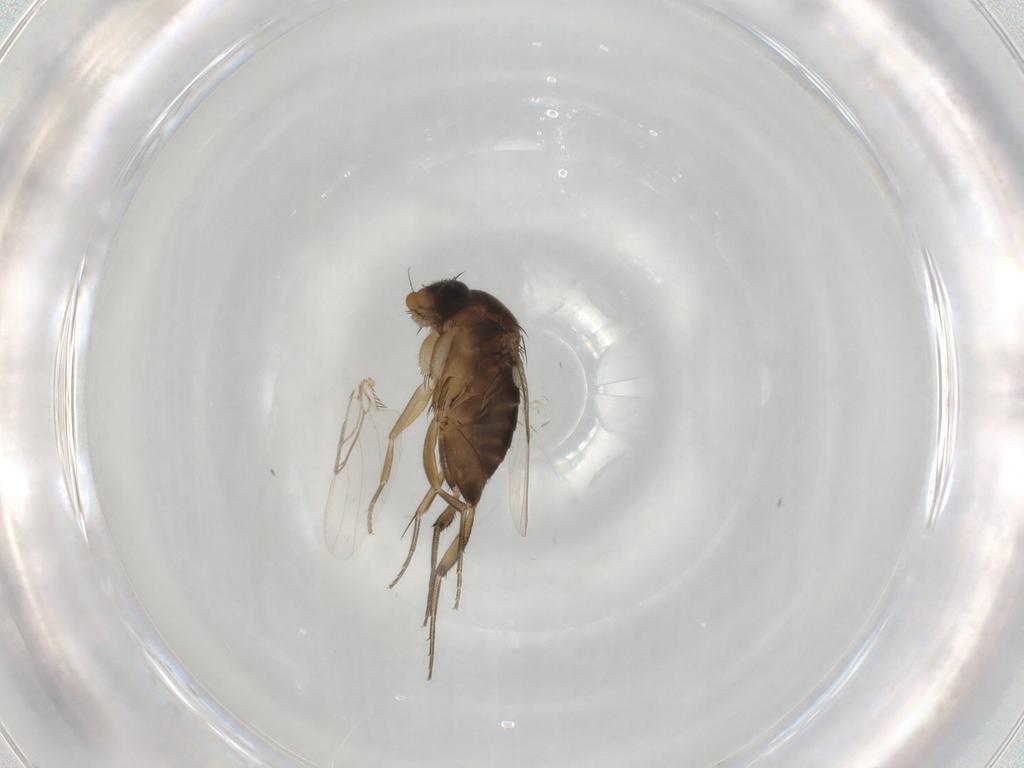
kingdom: Animalia
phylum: Arthropoda
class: Insecta
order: Diptera
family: Phoridae
